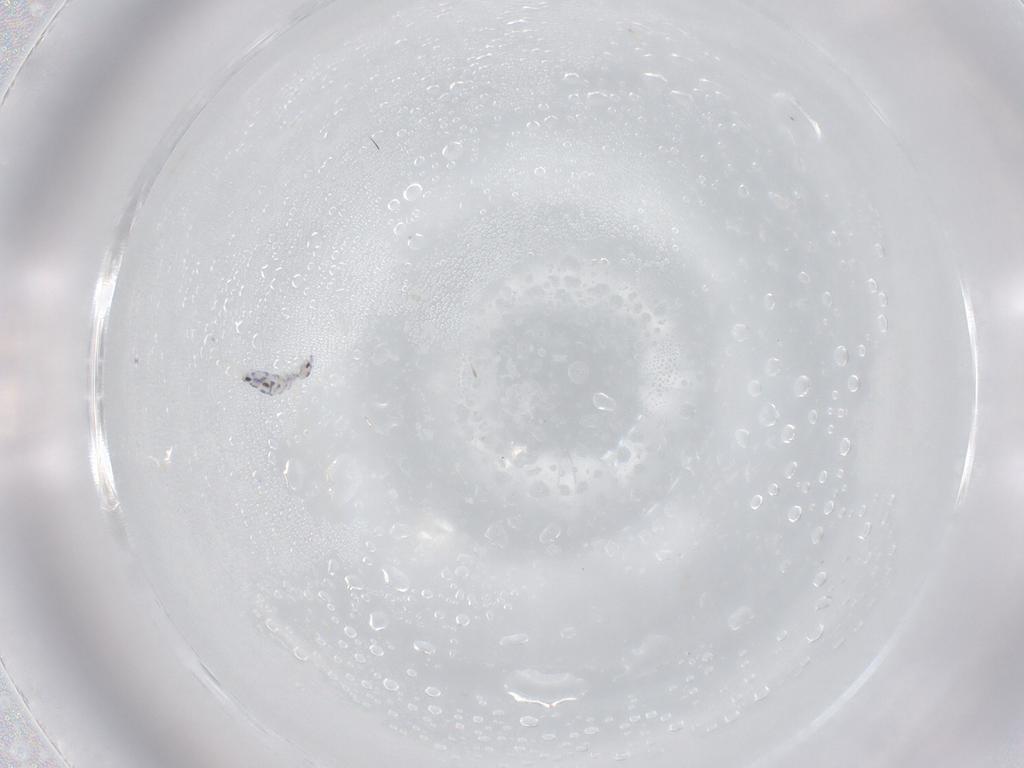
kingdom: Animalia
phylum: Arthropoda
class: Collembola
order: Entomobryomorpha
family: Entomobryidae
